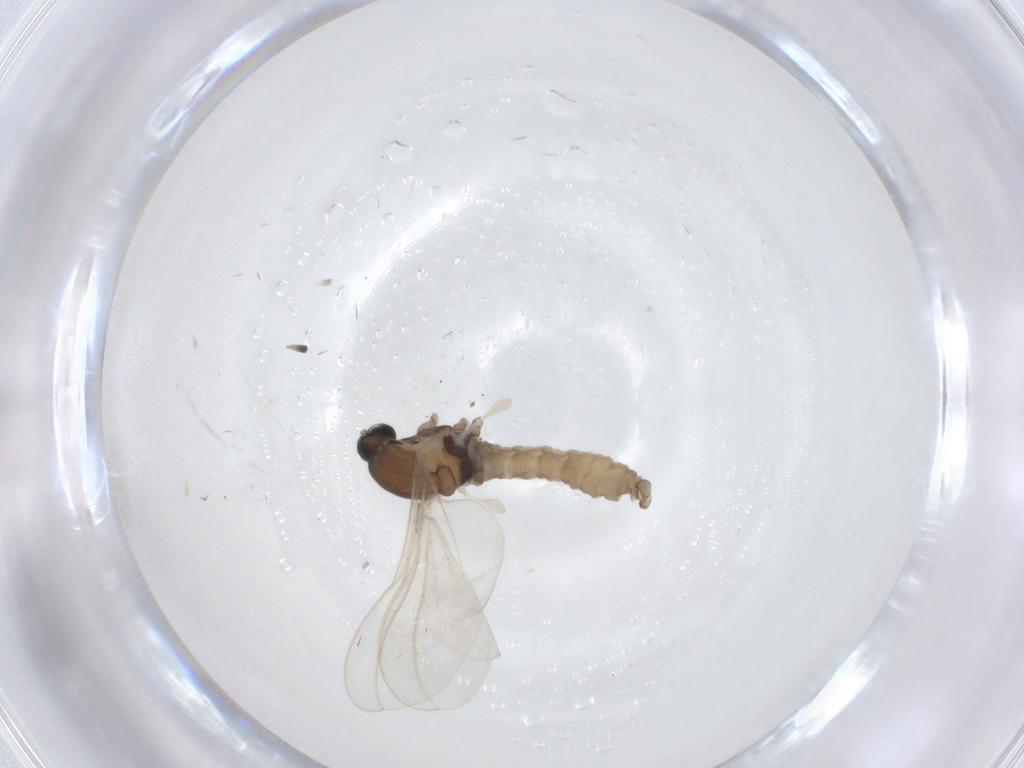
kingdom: Animalia
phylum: Arthropoda
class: Insecta
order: Diptera
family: Cecidomyiidae
